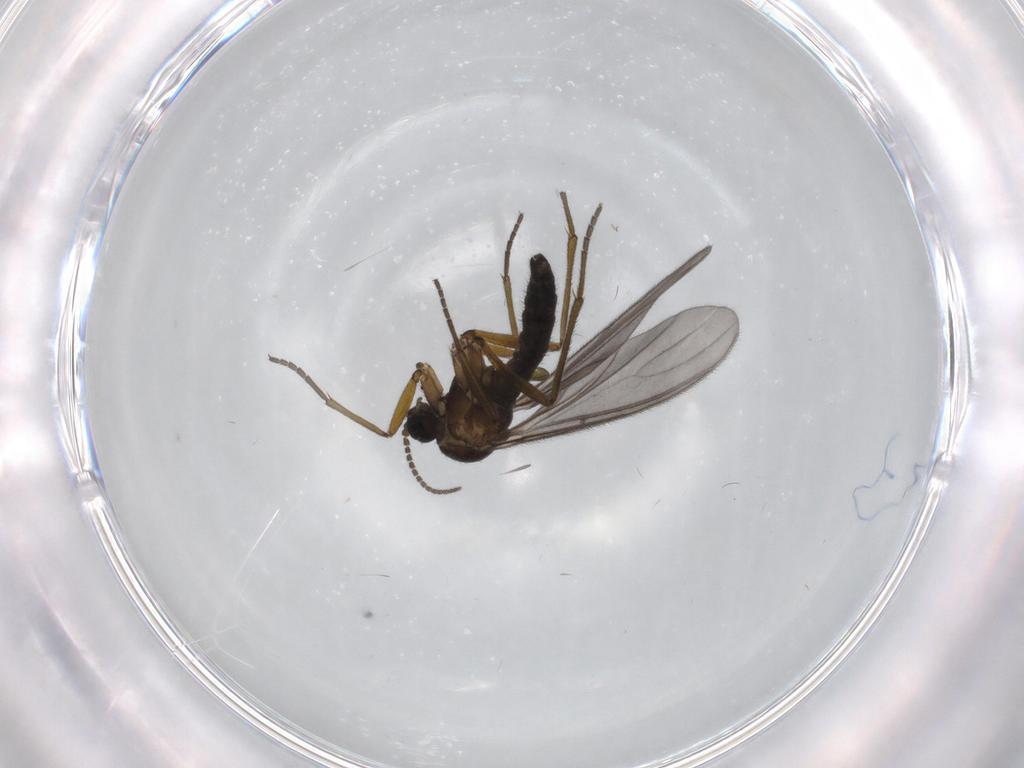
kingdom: Animalia
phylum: Arthropoda
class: Insecta
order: Diptera
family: Sciaridae
